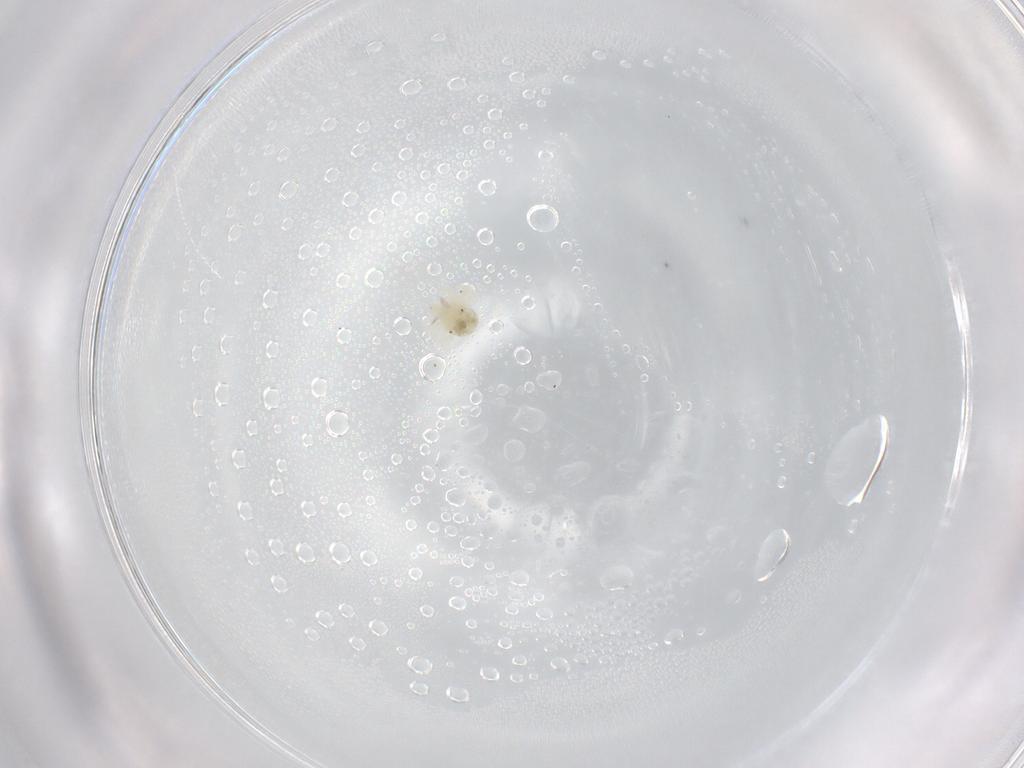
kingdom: Animalia
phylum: Arthropoda
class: Arachnida
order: Trombidiformes
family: Anystidae
